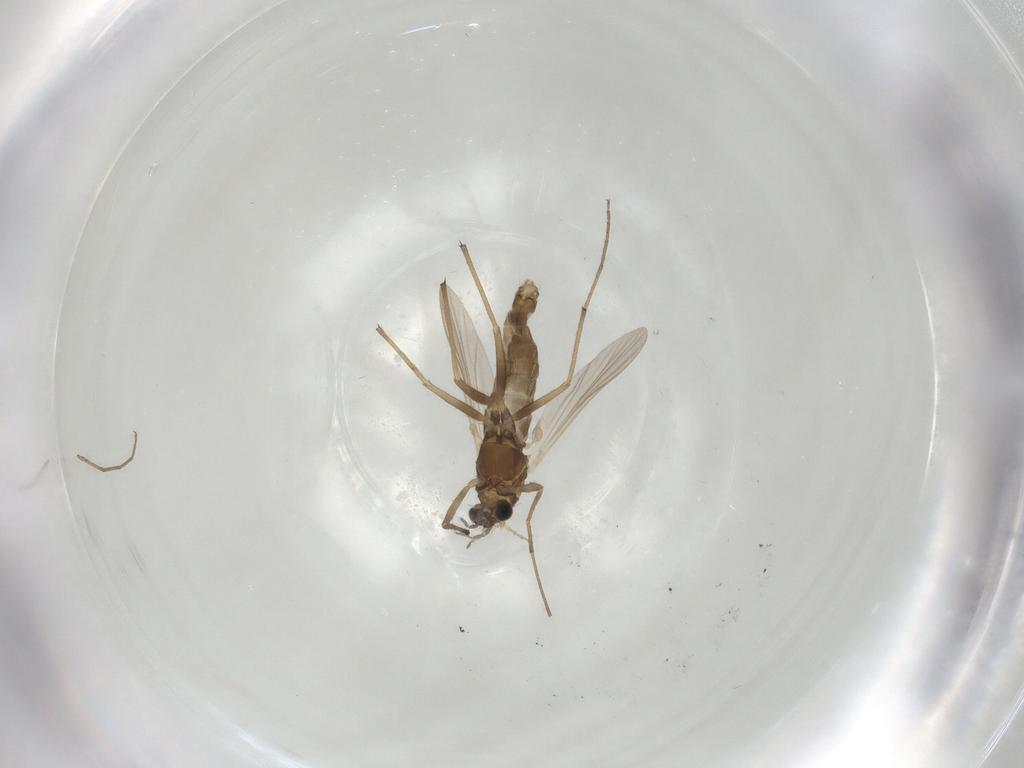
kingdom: Animalia
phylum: Arthropoda
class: Insecta
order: Diptera
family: Chironomidae
